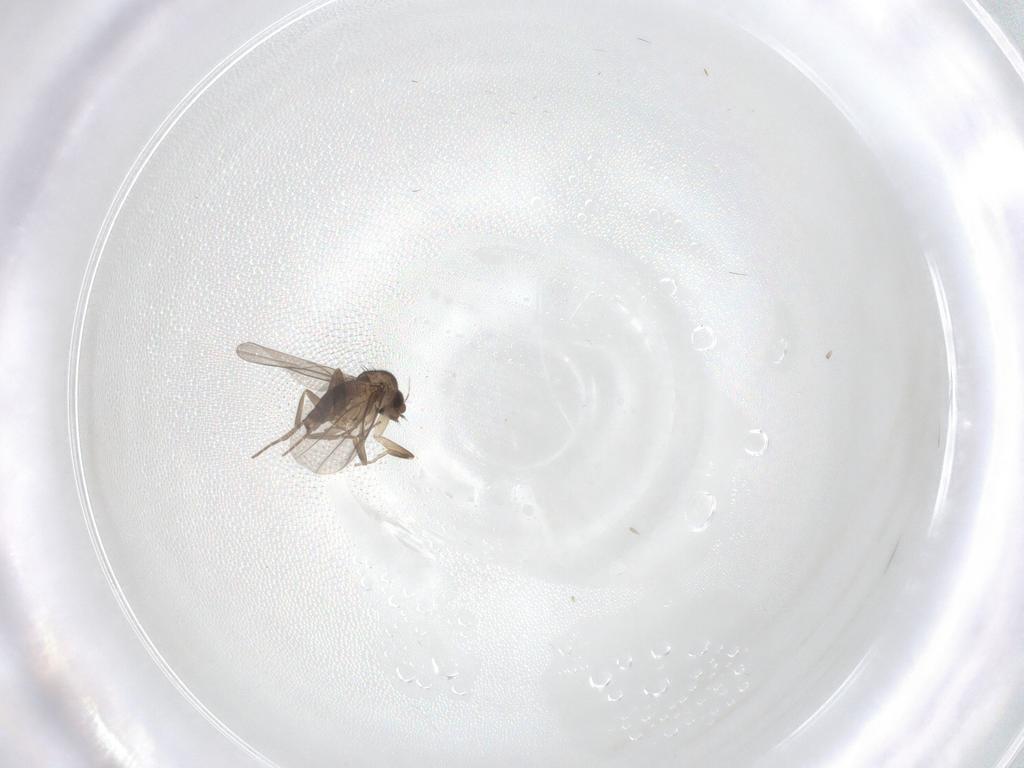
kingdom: Animalia
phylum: Arthropoda
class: Insecta
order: Diptera
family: Phoridae
